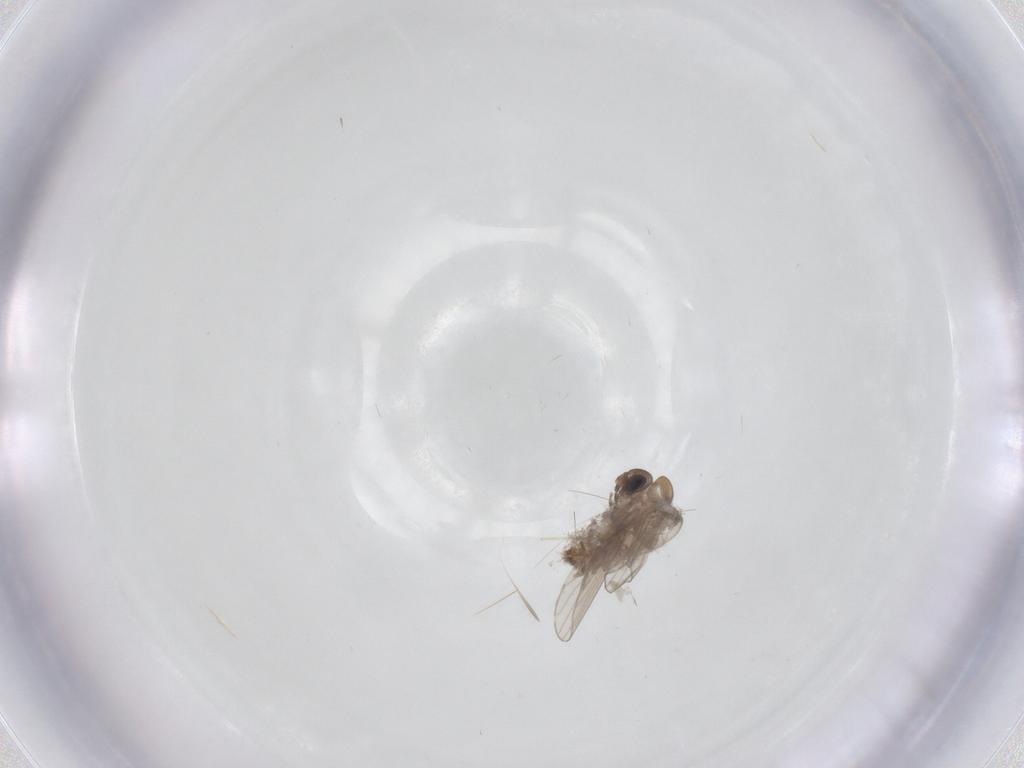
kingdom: Animalia
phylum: Arthropoda
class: Insecta
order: Diptera
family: Mycetophilidae
